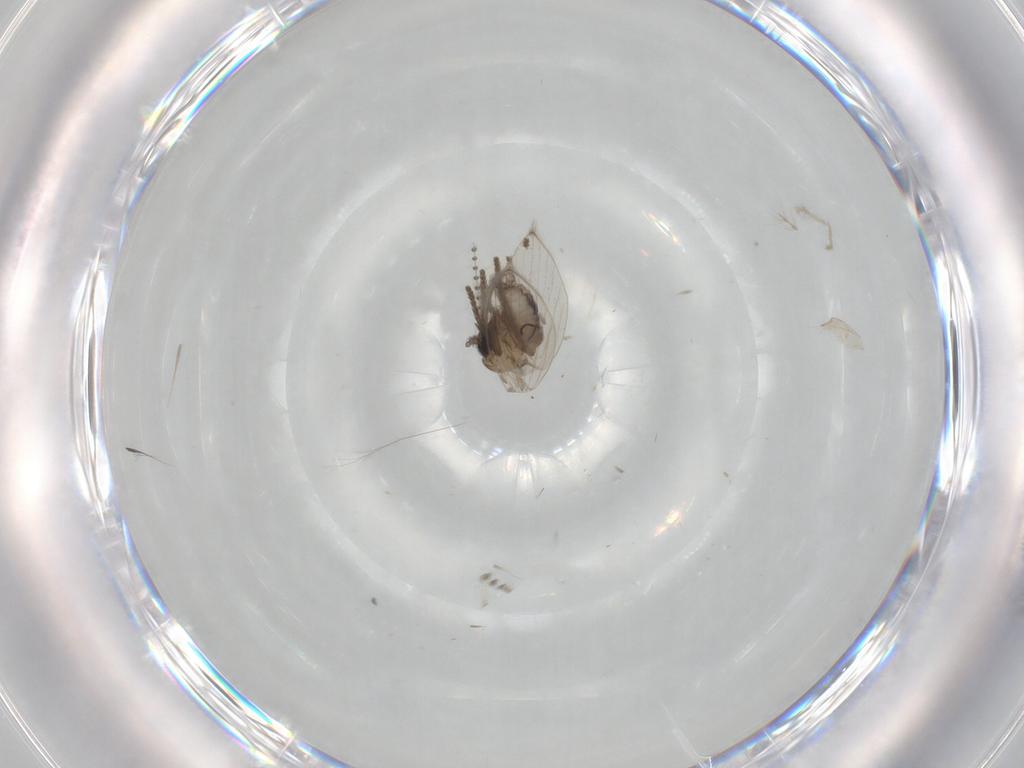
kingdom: Animalia
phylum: Arthropoda
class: Insecta
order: Diptera
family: Psychodidae
